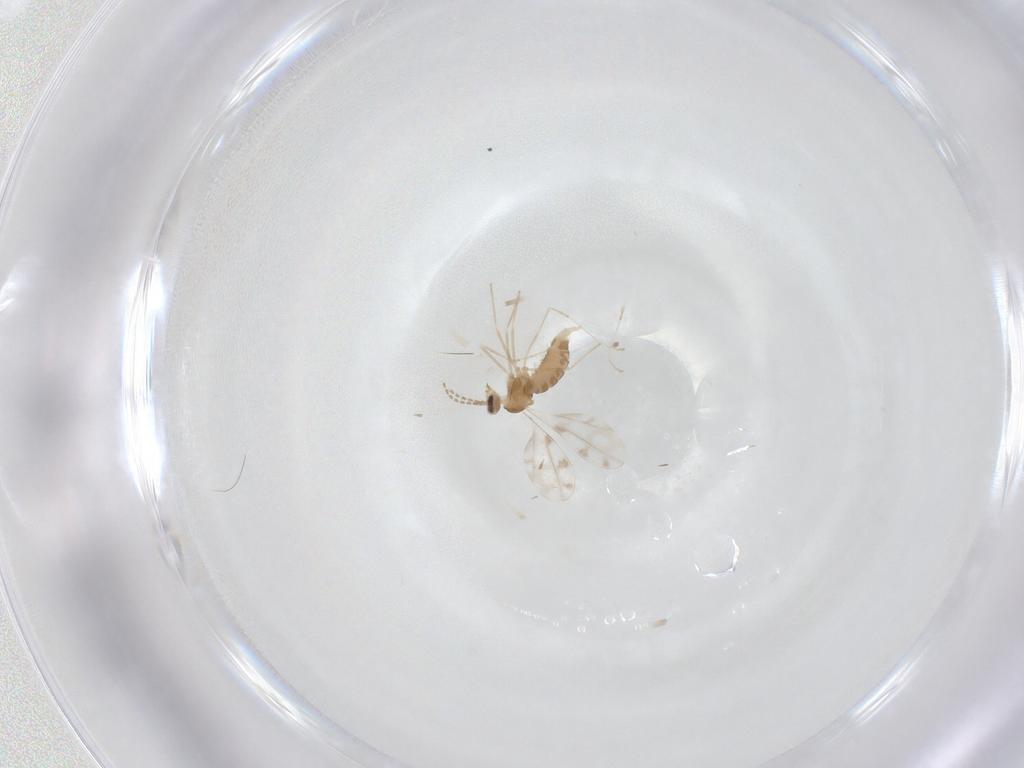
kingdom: Animalia
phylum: Arthropoda
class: Insecta
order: Diptera
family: Cecidomyiidae
